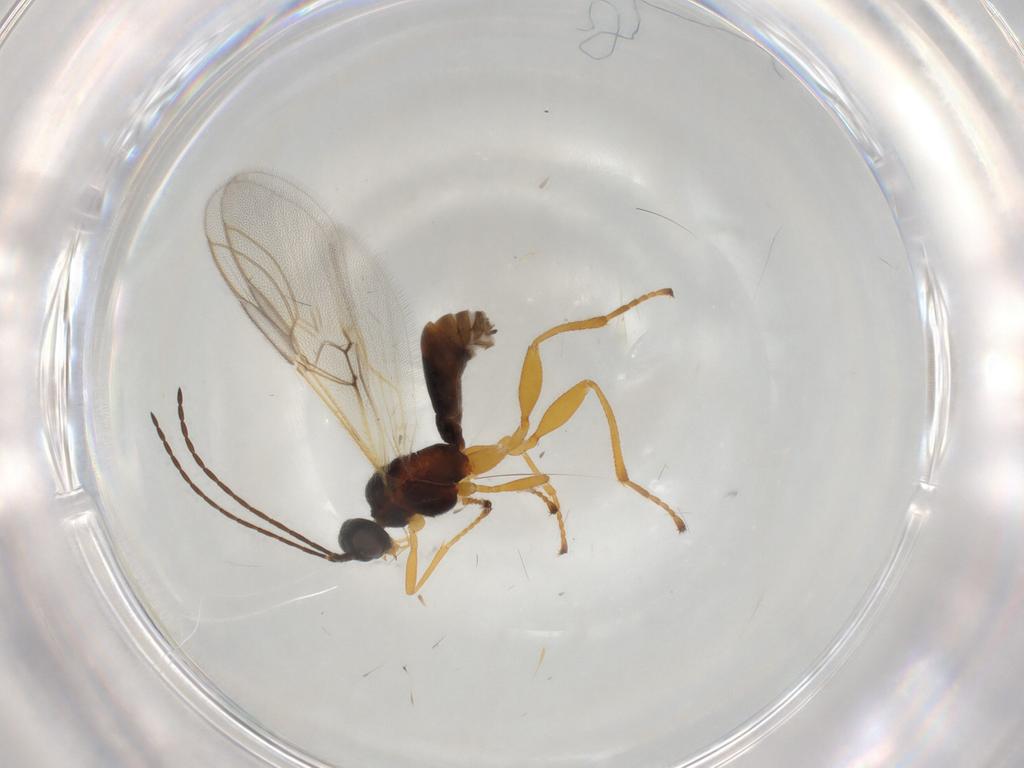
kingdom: Animalia
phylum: Arthropoda
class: Insecta
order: Hymenoptera
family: Braconidae
